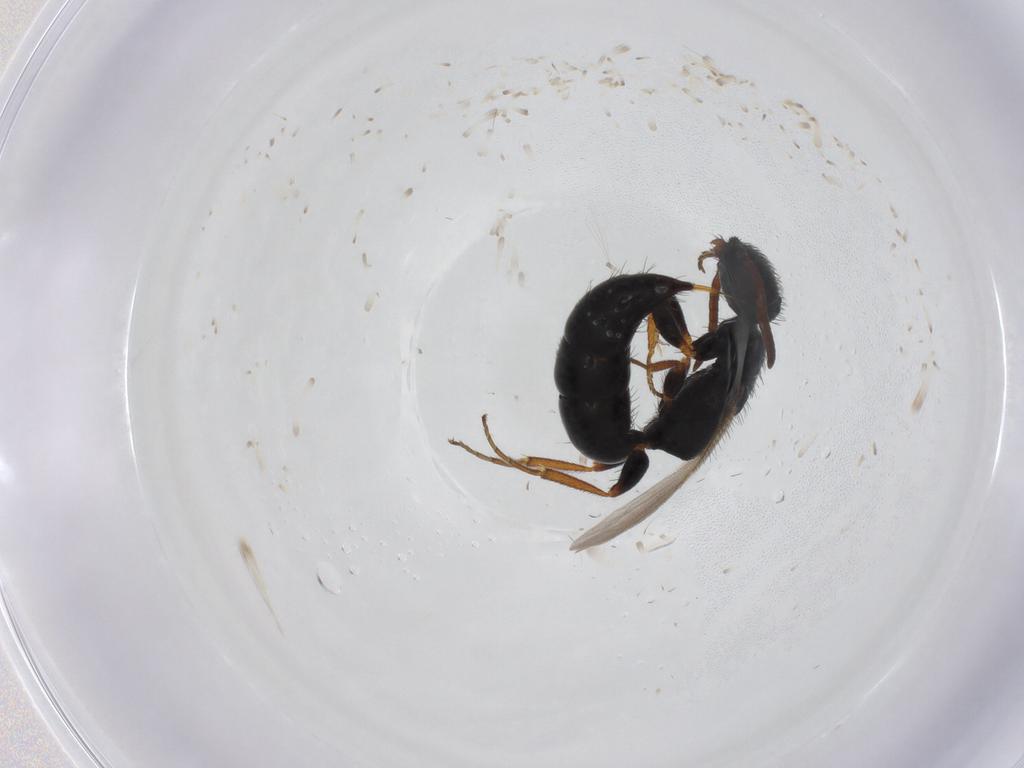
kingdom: Animalia
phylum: Arthropoda
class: Insecta
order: Hymenoptera
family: Bethylidae
